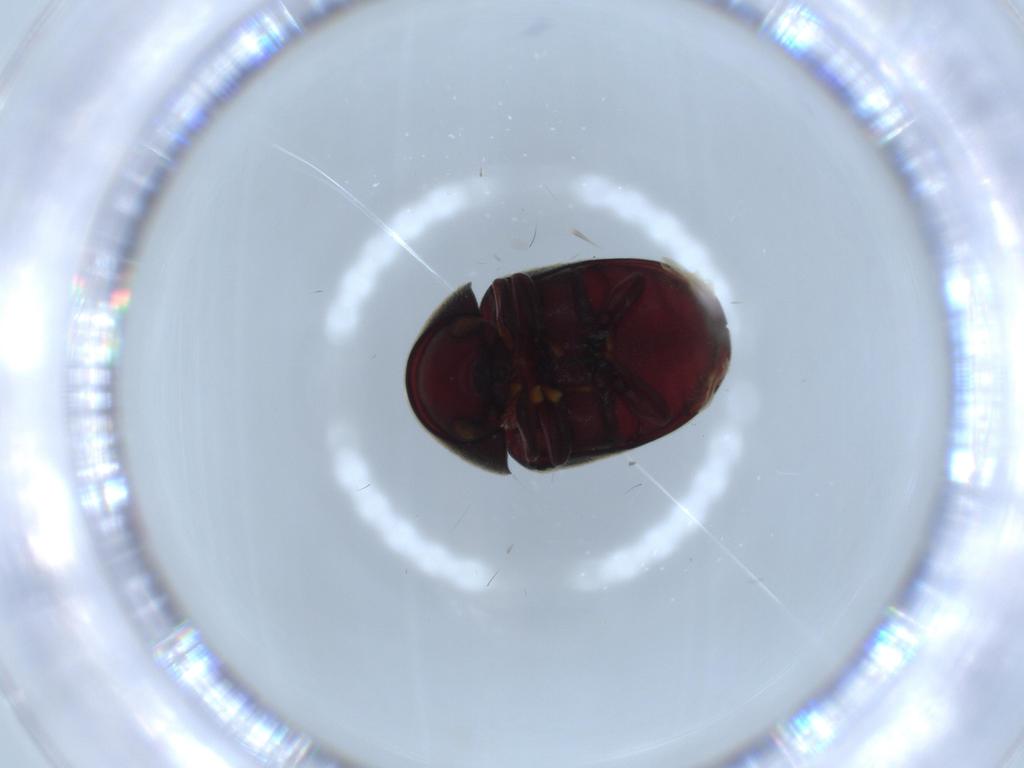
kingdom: Animalia
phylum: Arthropoda
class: Insecta
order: Coleoptera
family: Ptinidae
